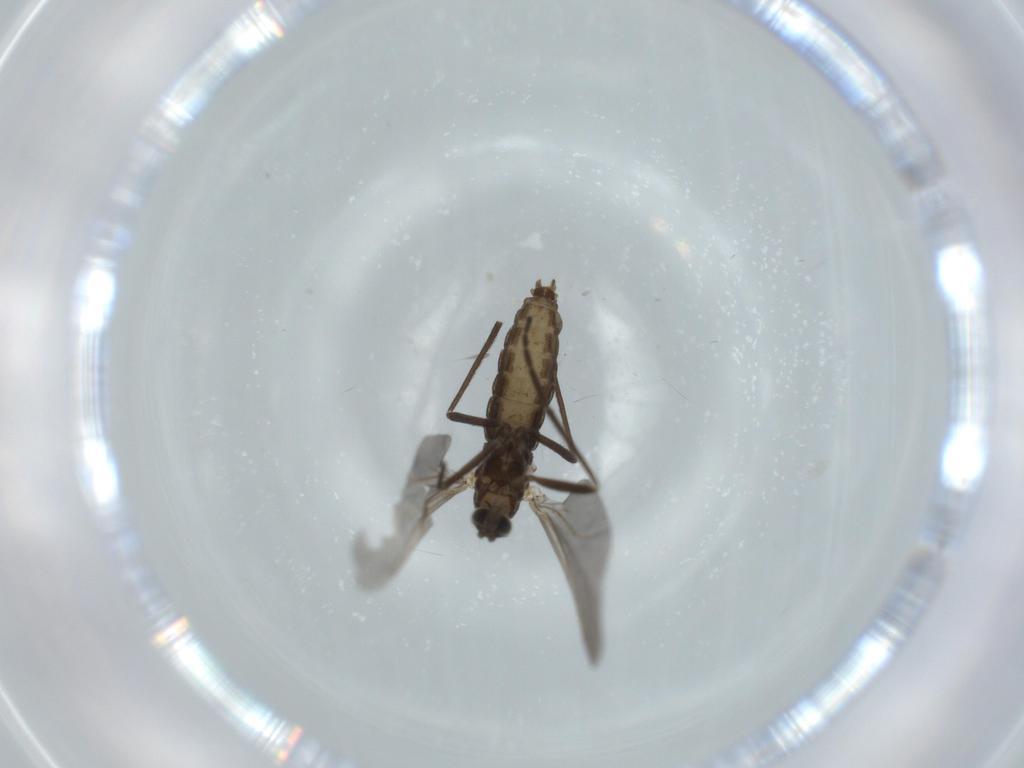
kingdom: Animalia
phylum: Arthropoda
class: Insecta
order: Diptera
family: Cecidomyiidae
